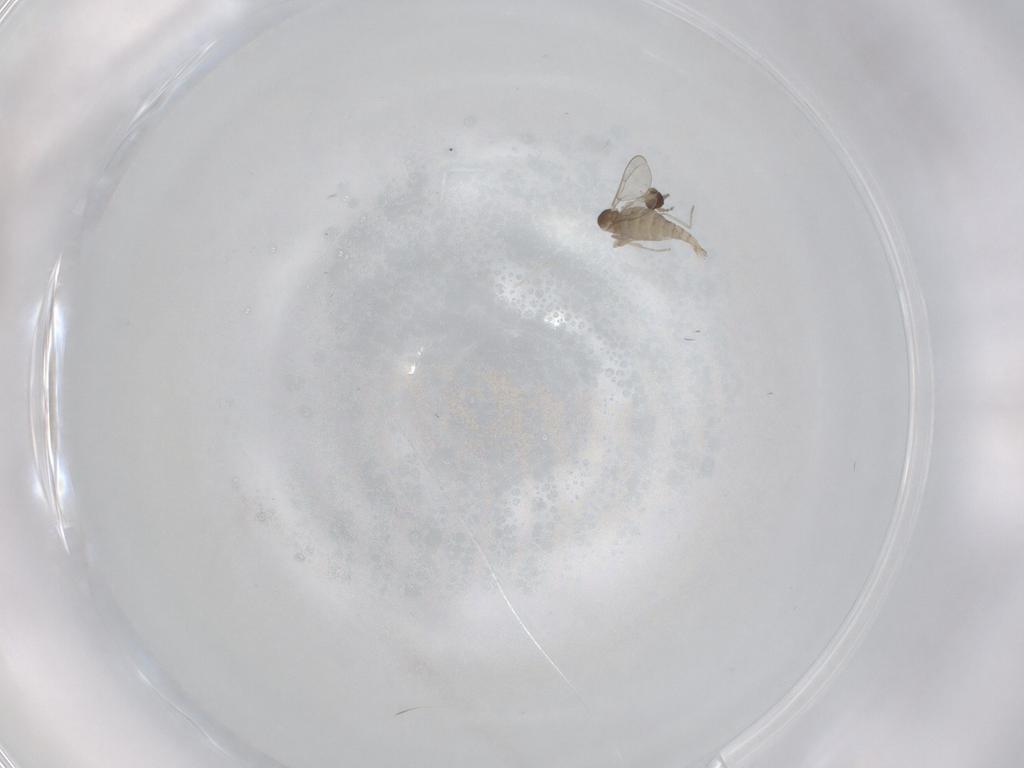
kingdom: Animalia
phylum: Arthropoda
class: Insecta
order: Diptera
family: Cecidomyiidae
